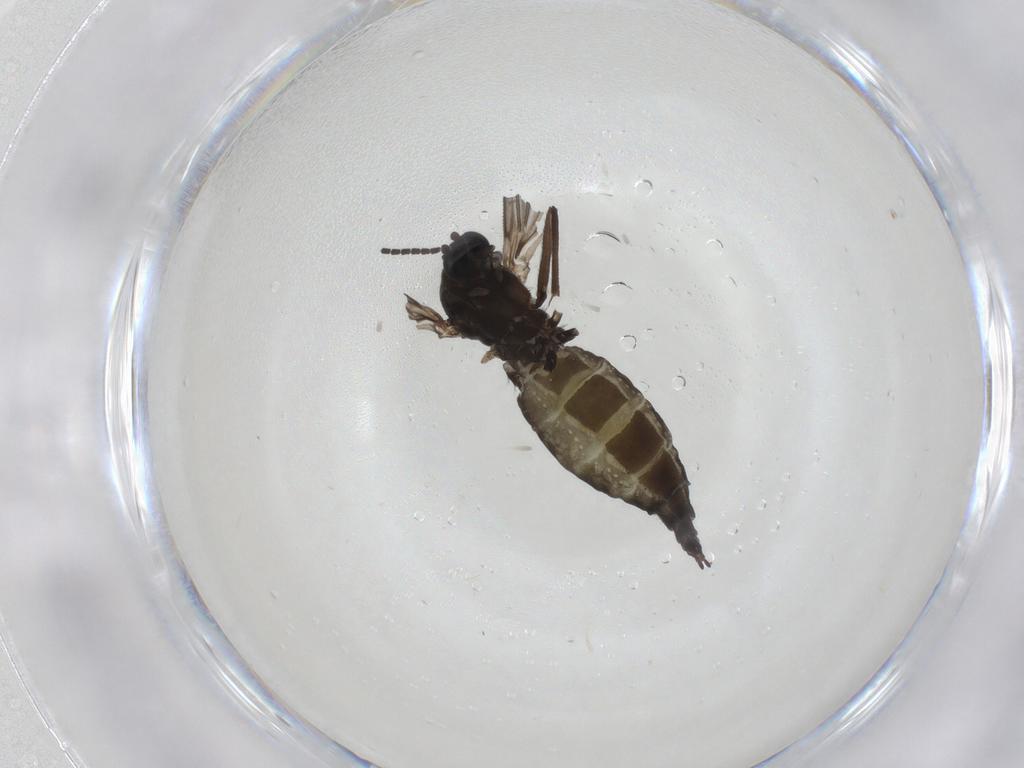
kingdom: Animalia
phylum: Arthropoda
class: Insecta
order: Diptera
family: Sciaridae
